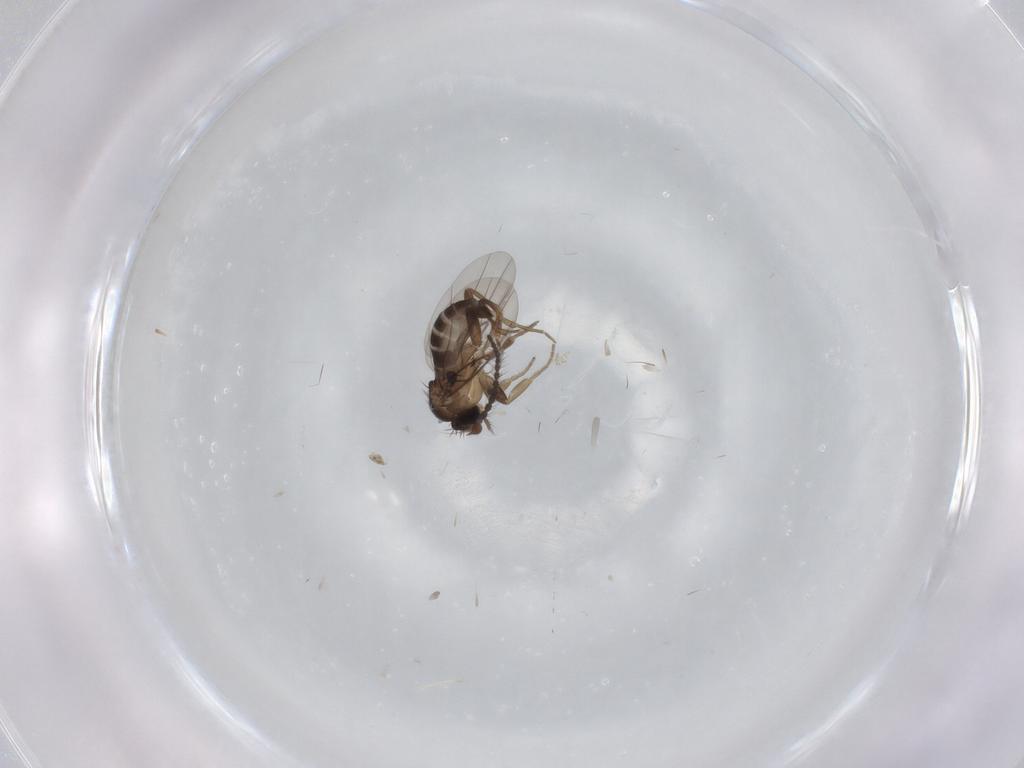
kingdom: Animalia
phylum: Arthropoda
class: Insecta
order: Diptera
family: Phoridae
